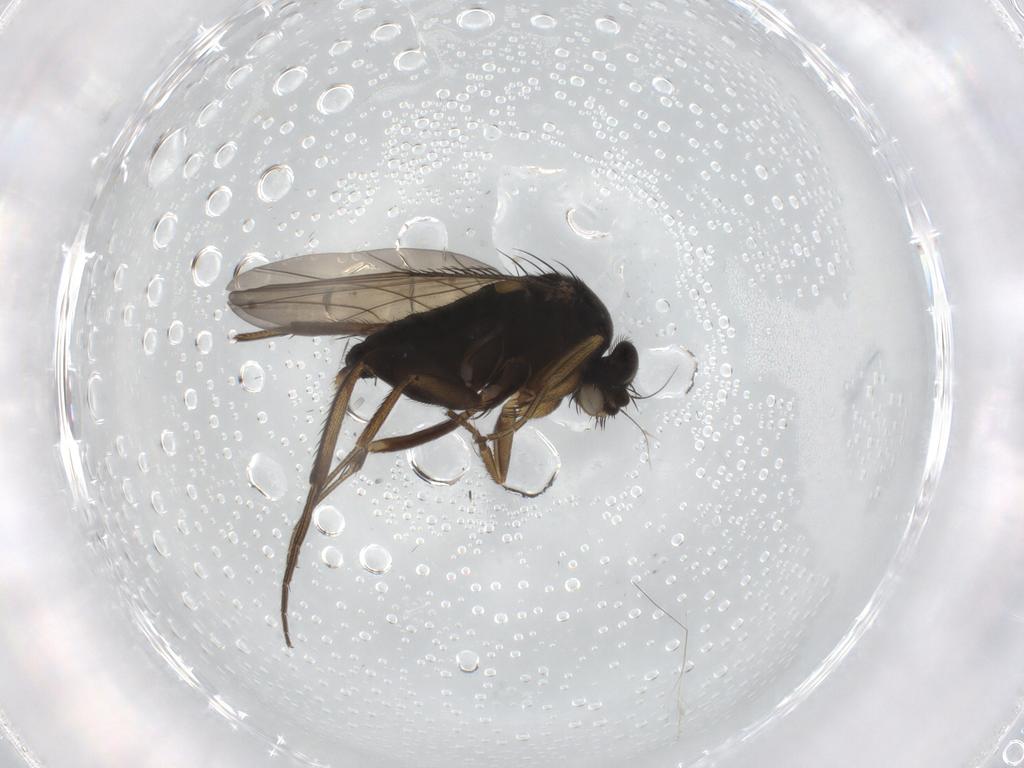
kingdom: Animalia
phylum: Arthropoda
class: Insecta
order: Diptera
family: Phoridae
